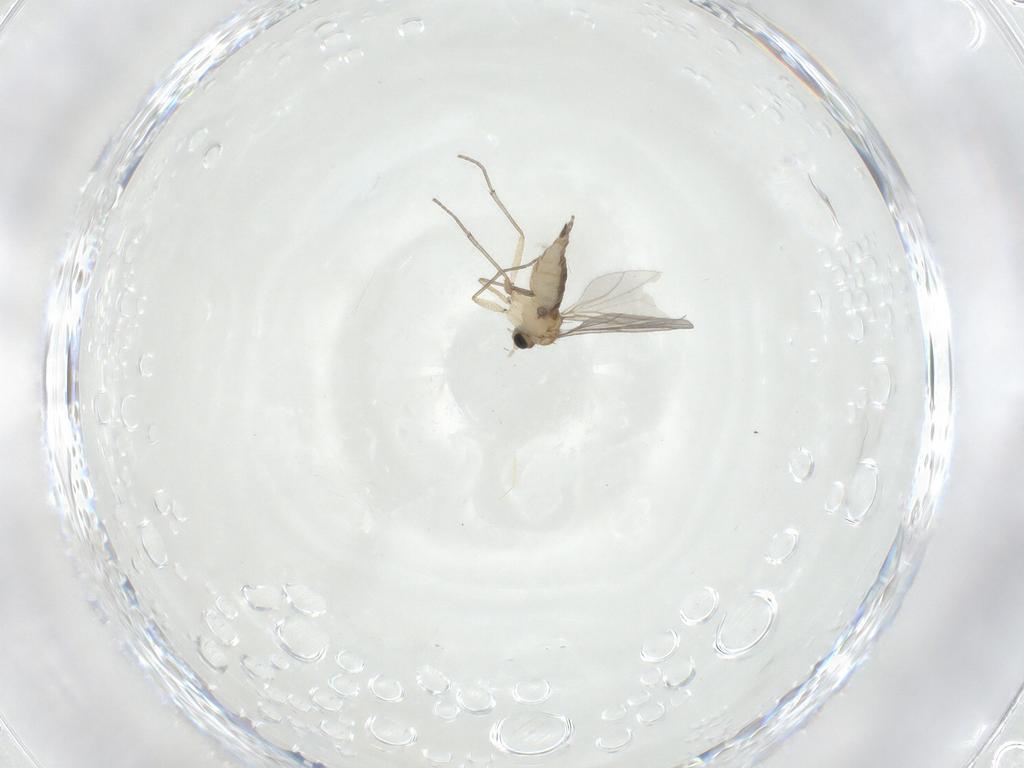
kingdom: Animalia
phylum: Arthropoda
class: Insecta
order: Diptera
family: Sciaridae
